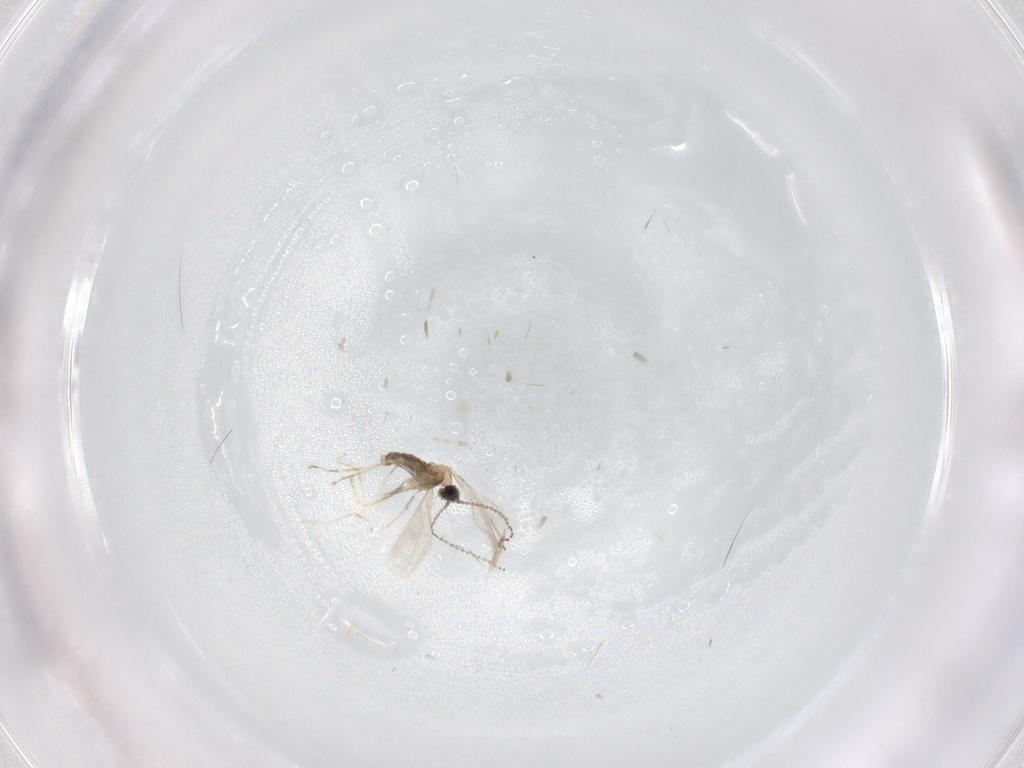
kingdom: Animalia
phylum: Arthropoda
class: Insecta
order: Diptera
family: Cecidomyiidae
